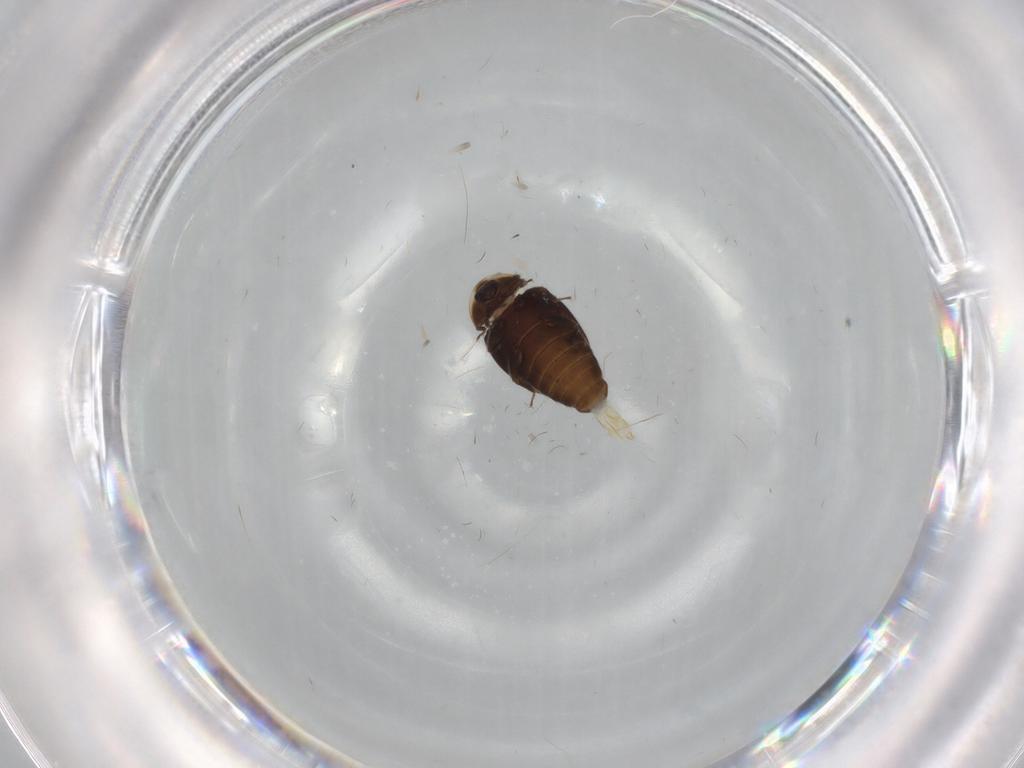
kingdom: Animalia
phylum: Arthropoda
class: Insecta
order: Coleoptera
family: Corylophidae
